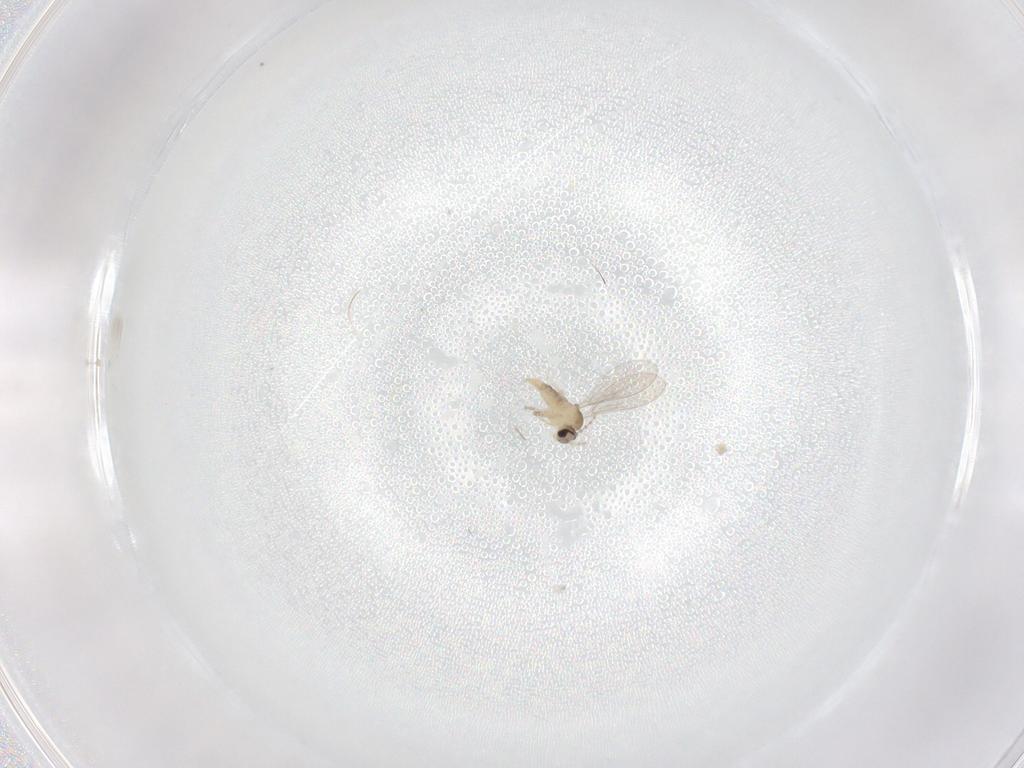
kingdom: Animalia
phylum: Arthropoda
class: Insecta
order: Diptera
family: Cecidomyiidae
